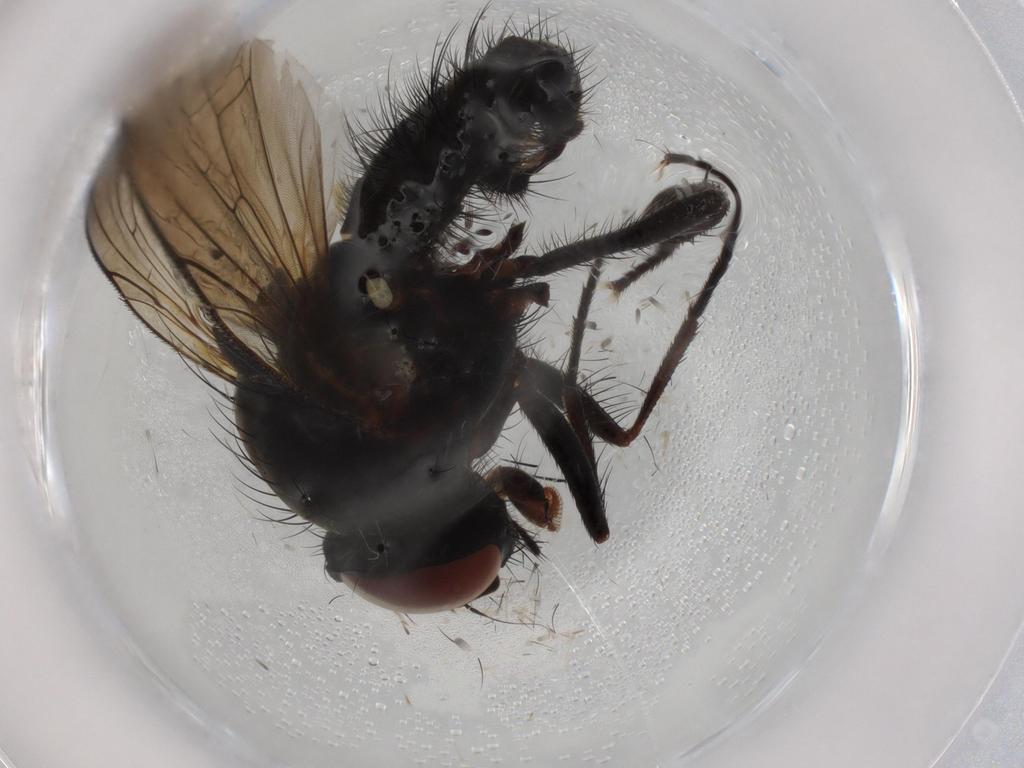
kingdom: Animalia
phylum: Arthropoda
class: Insecta
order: Diptera
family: Anthomyiidae
